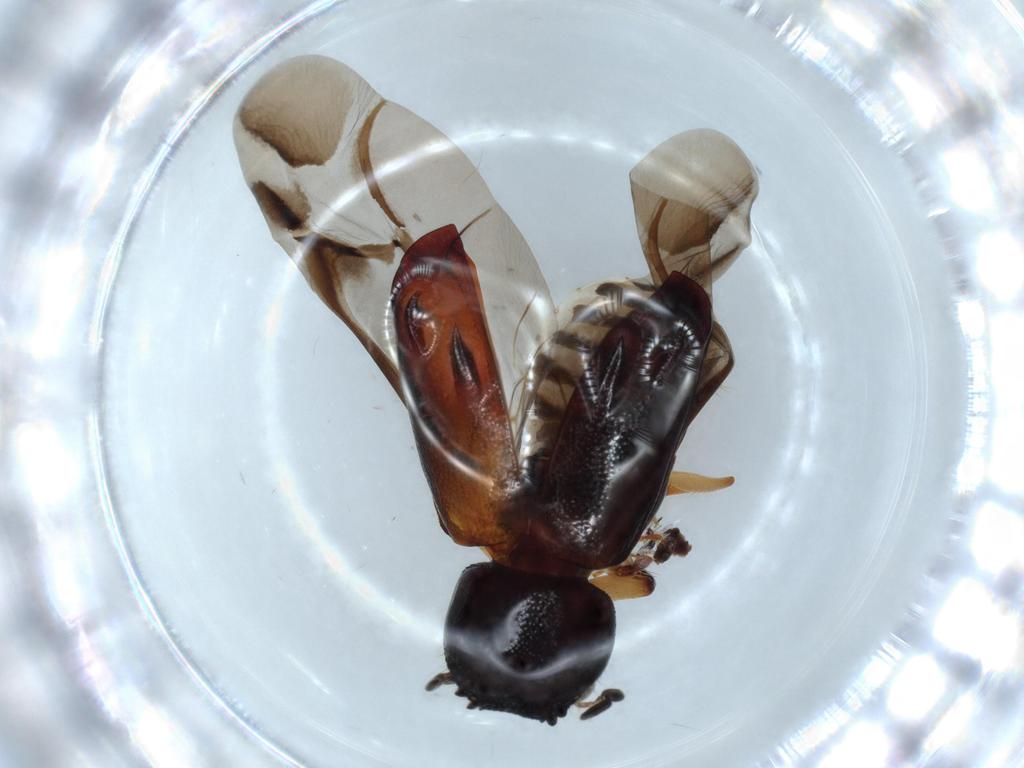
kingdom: Animalia
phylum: Arthropoda
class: Insecta
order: Coleoptera
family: Bostrichidae
